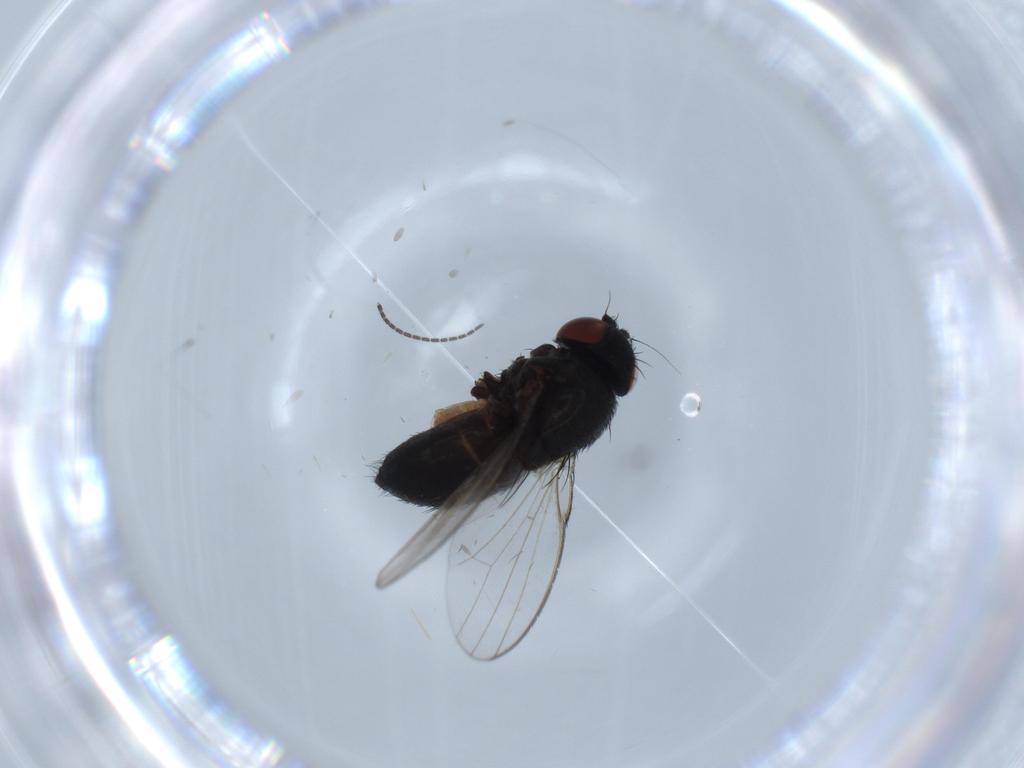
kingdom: Animalia
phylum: Arthropoda
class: Insecta
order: Diptera
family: Milichiidae
